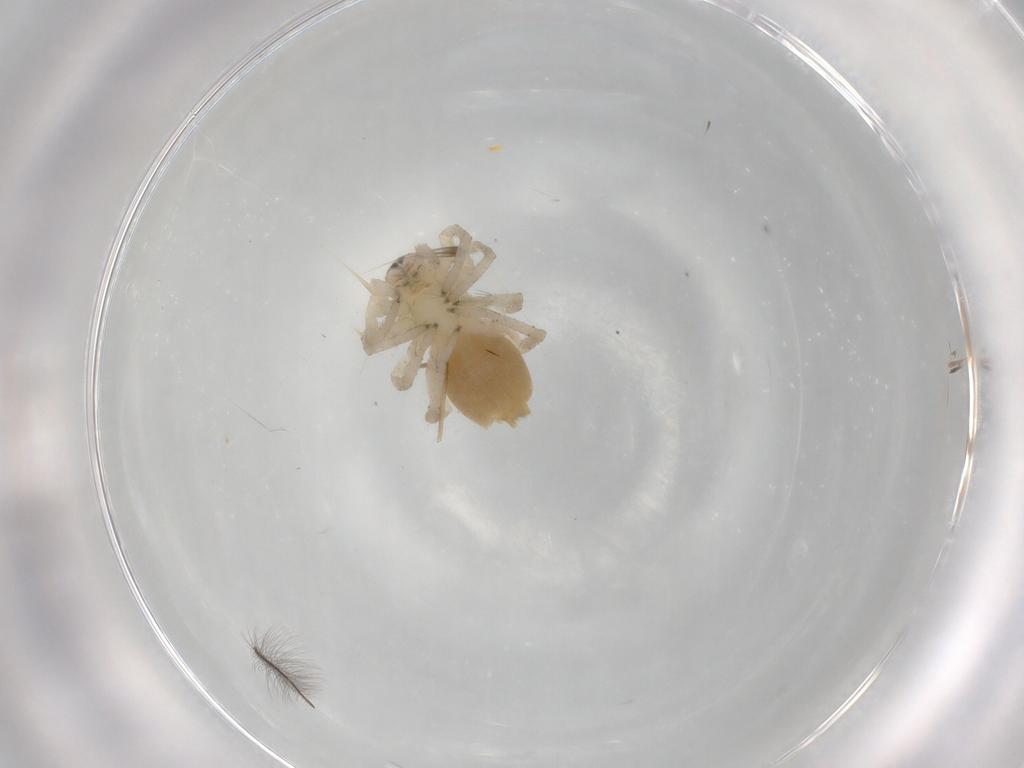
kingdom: Animalia
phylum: Arthropoda
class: Arachnida
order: Araneae
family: Clubionidae
